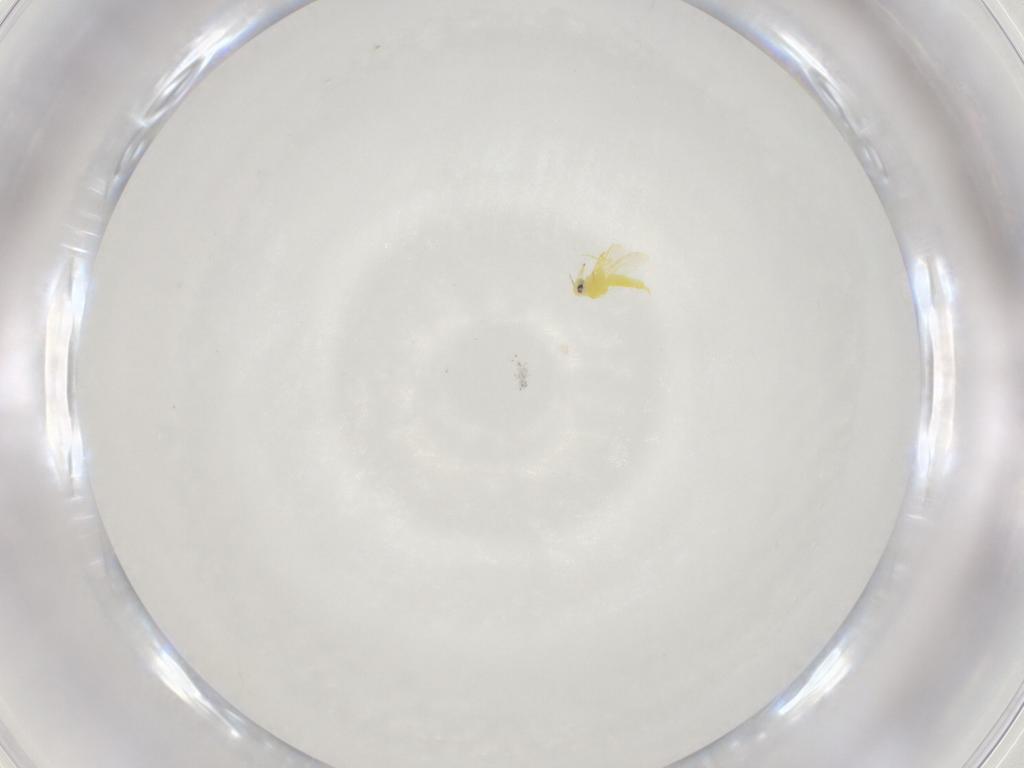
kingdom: Animalia
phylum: Arthropoda
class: Insecta
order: Hemiptera
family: Aleyrodidae
